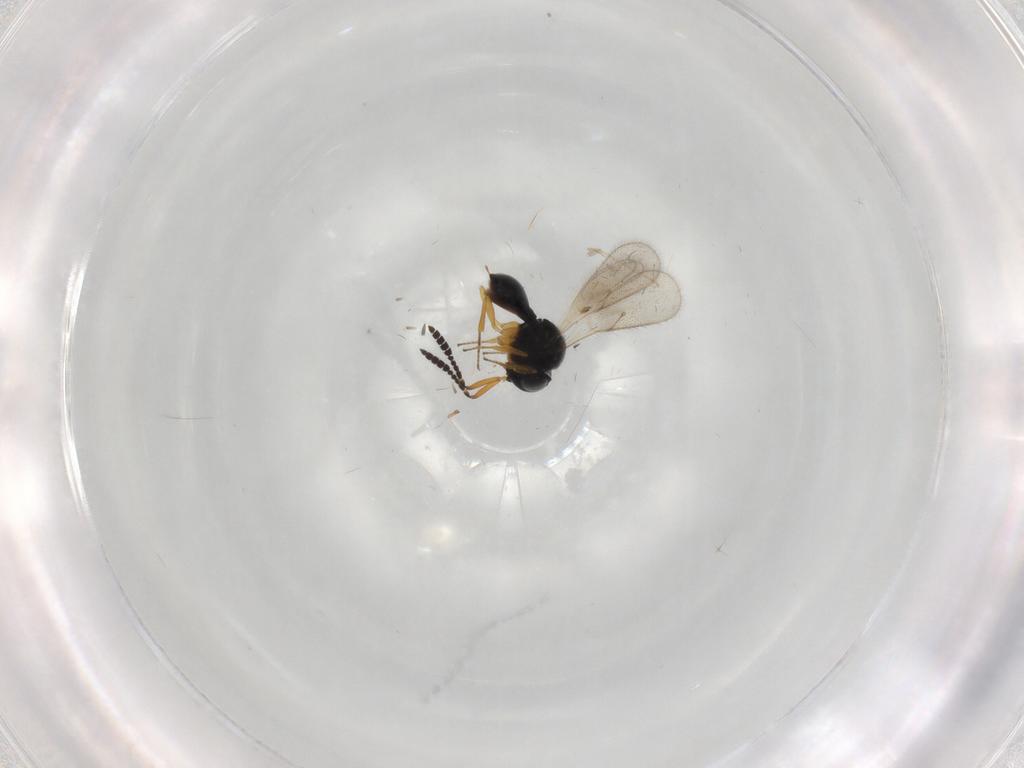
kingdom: Animalia
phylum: Arthropoda
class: Insecta
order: Hymenoptera
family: Scelionidae
